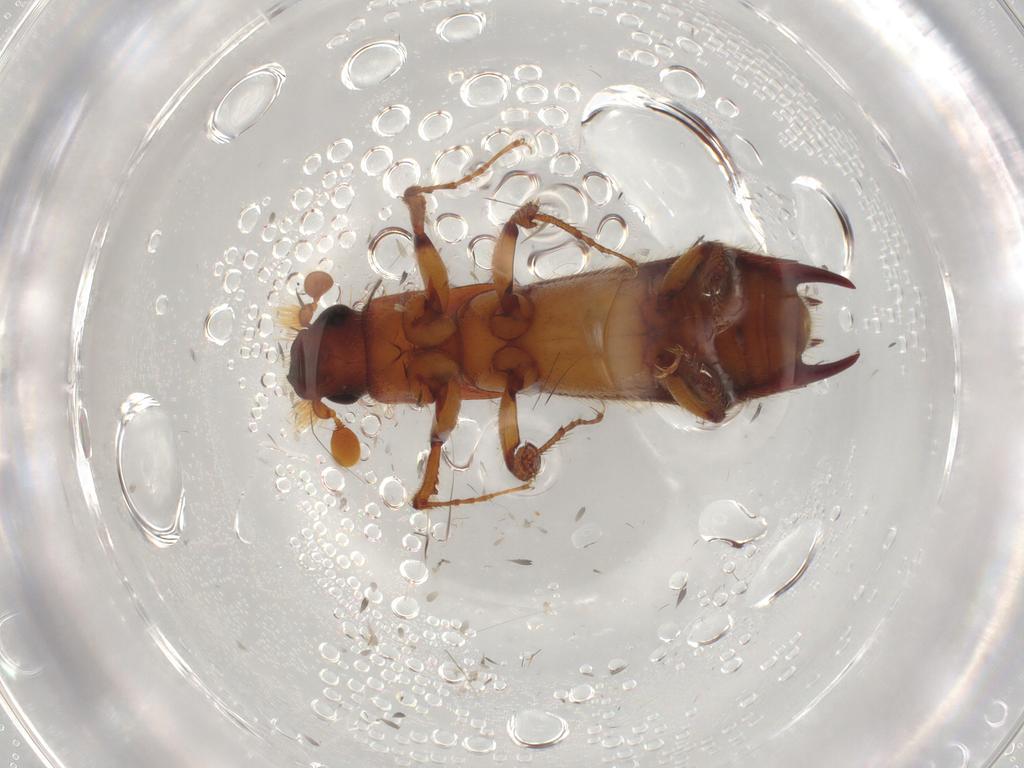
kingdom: Animalia
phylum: Arthropoda
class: Insecta
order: Coleoptera
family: Curculionidae
